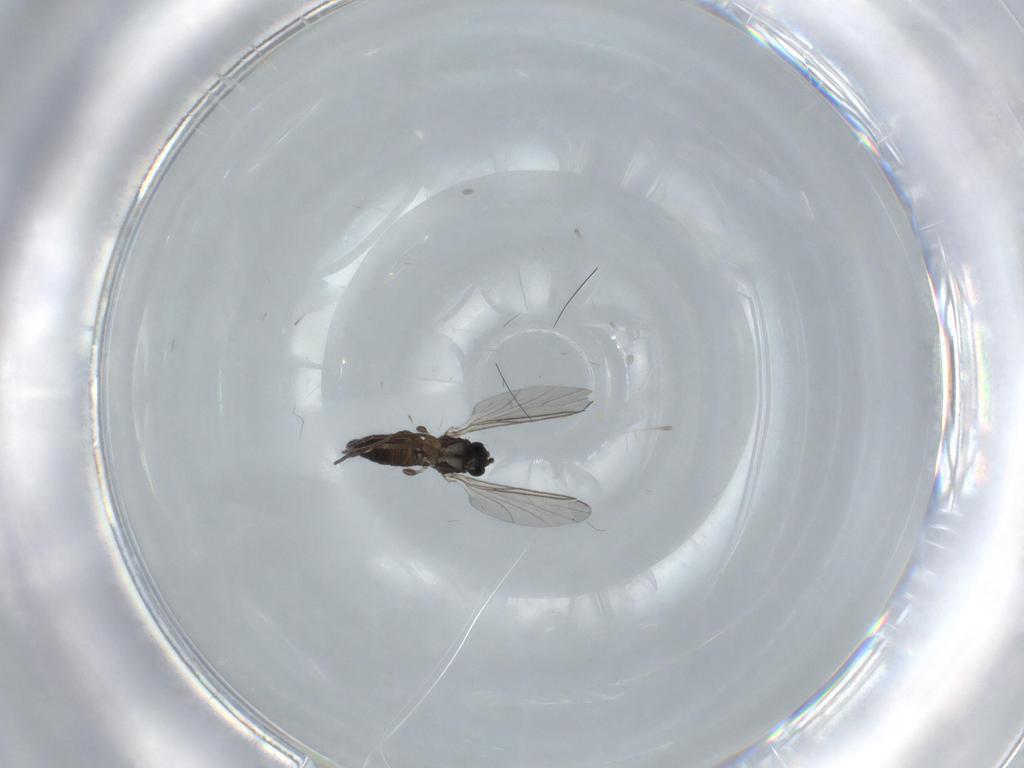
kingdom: Animalia
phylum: Arthropoda
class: Insecta
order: Diptera
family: Sciaridae
